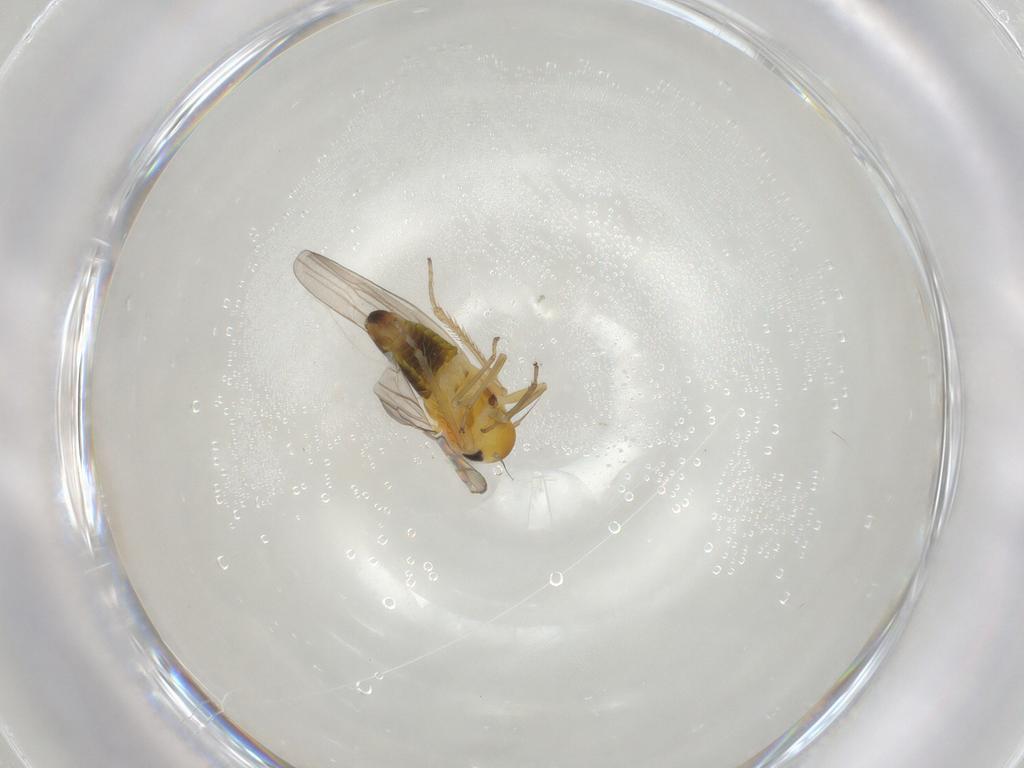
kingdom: Animalia
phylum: Arthropoda
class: Insecta
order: Hemiptera
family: Cicadellidae
